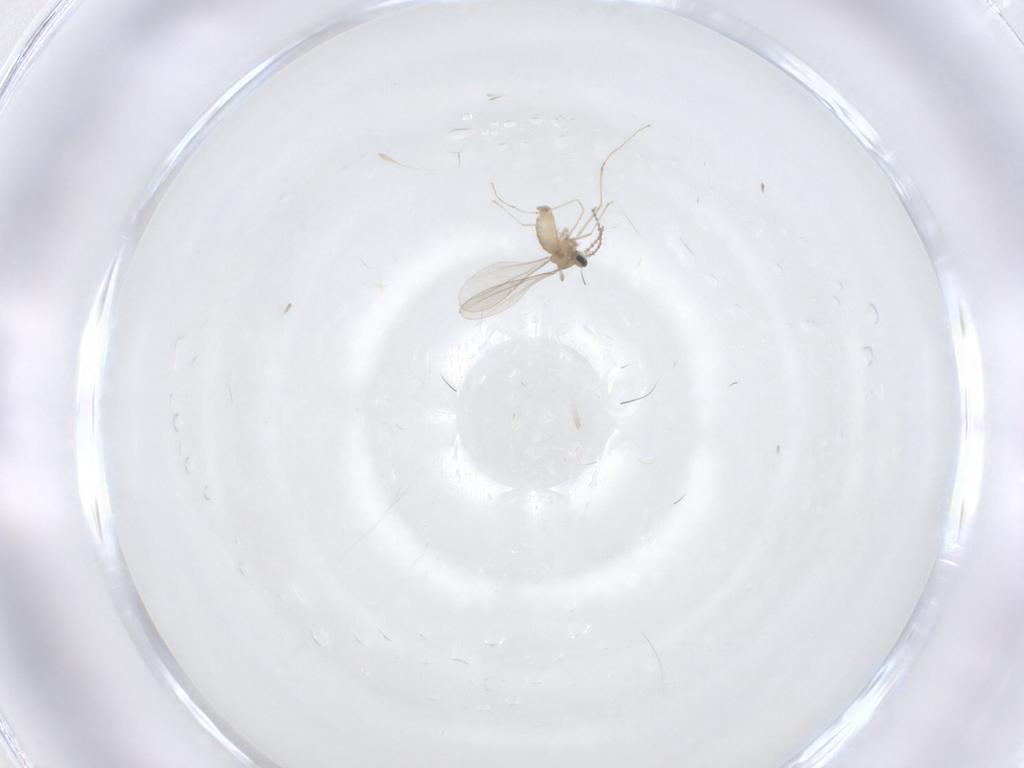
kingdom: Animalia
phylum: Arthropoda
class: Insecta
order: Diptera
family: Cecidomyiidae
